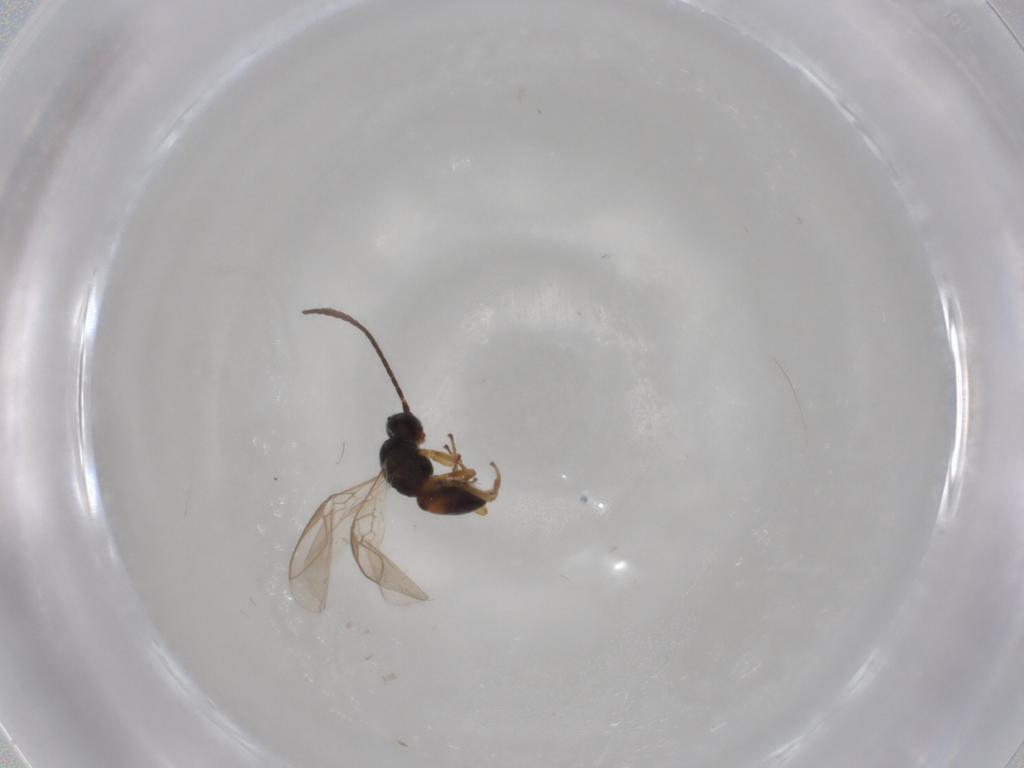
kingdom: Animalia
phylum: Arthropoda
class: Insecta
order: Hymenoptera
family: Braconidae
